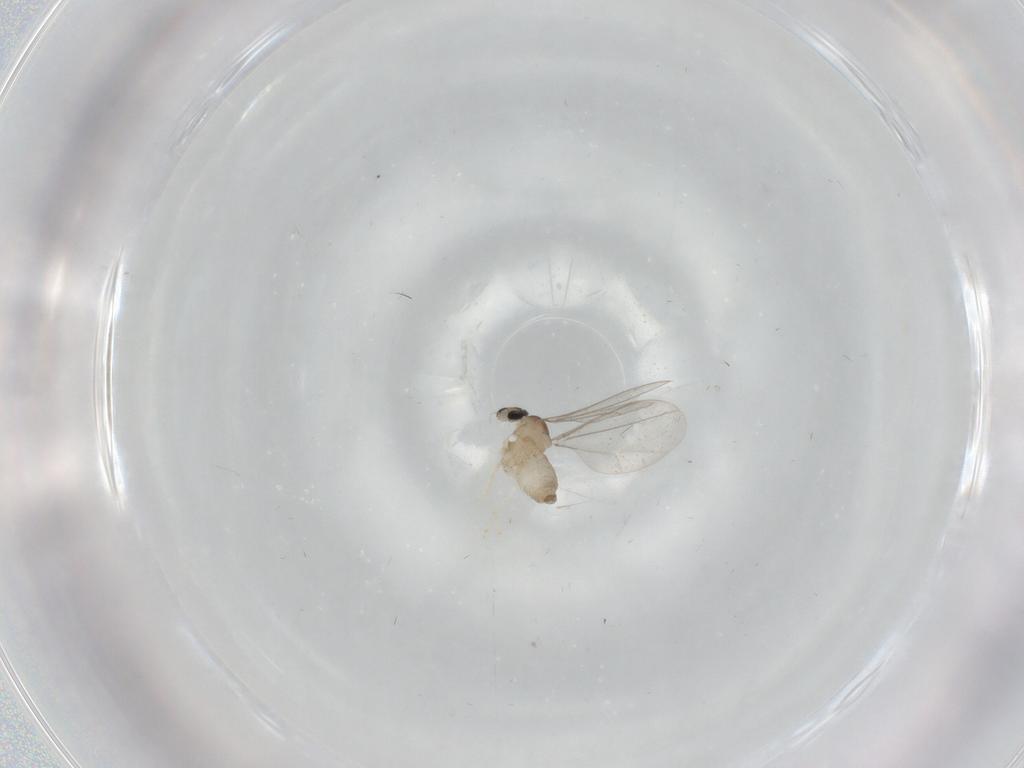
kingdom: Animalia
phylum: Arthropoda
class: Insecta
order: Diptera
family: Cecidomyiidae
